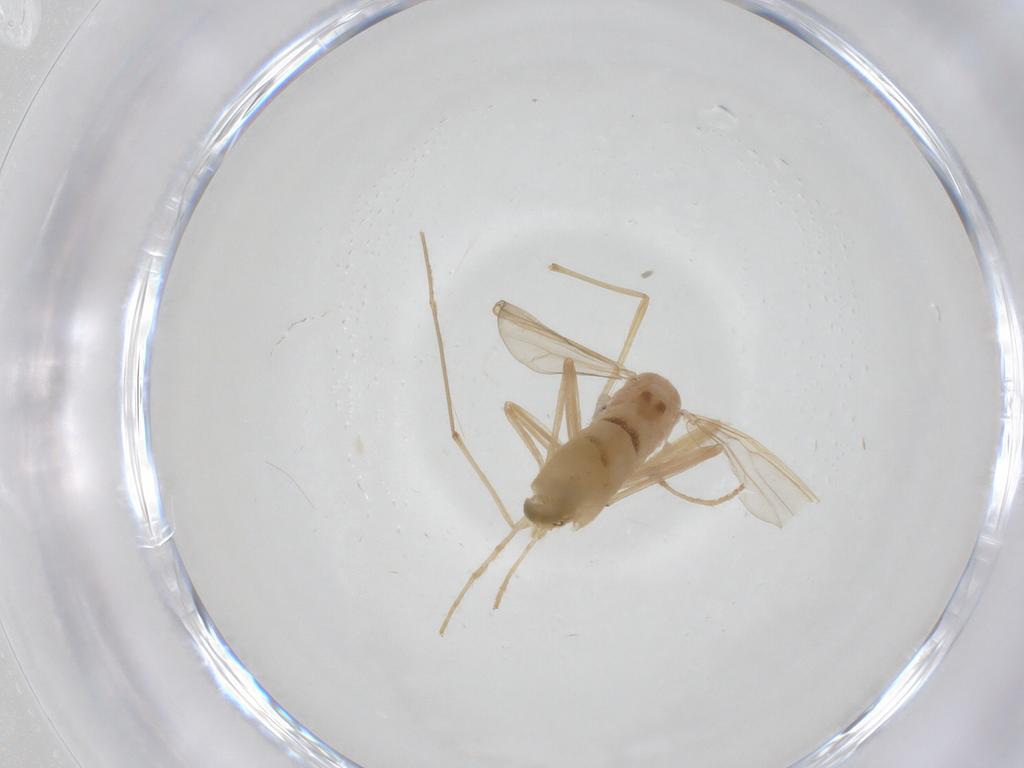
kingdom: Animalia
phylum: Arthropoda
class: Insecta
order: Diptera
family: Chironomidae
